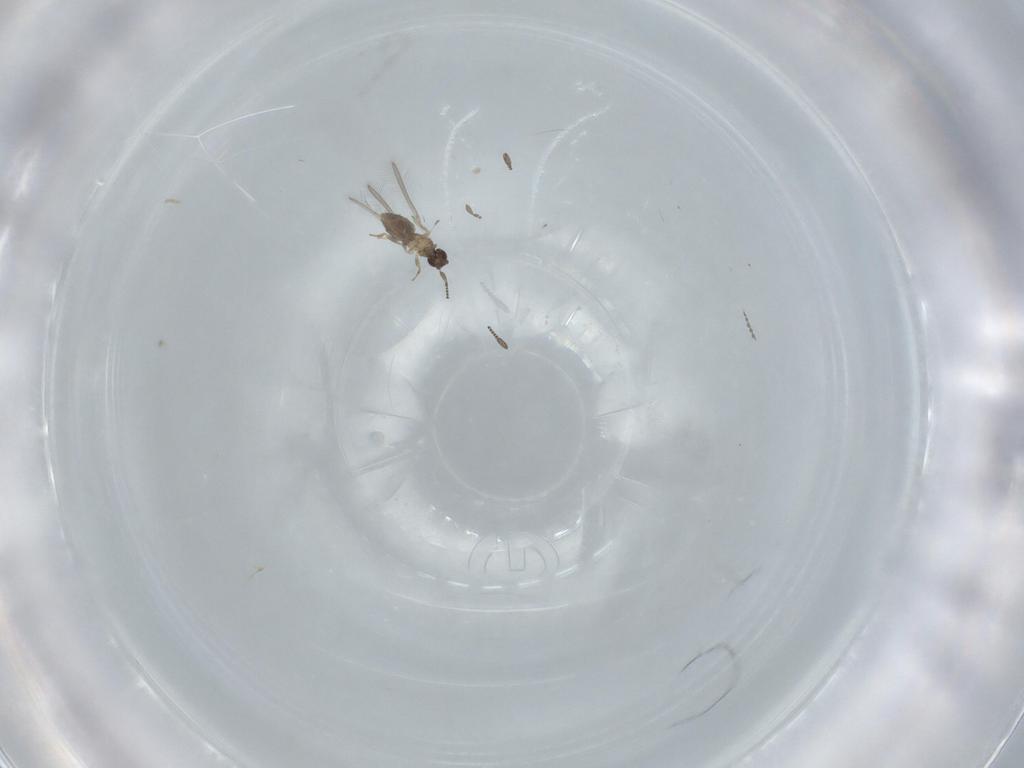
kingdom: Animalia
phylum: Arthropoda
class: Insecta
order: Hymenoptera
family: Mymaridae
